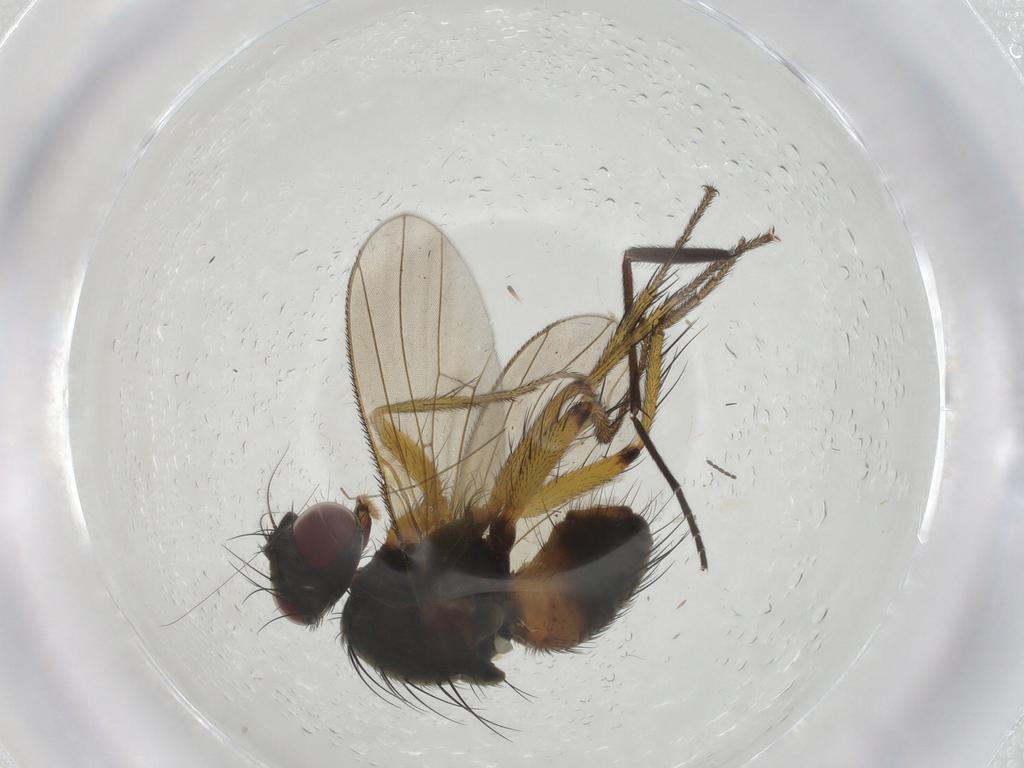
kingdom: Animalia
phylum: Arthropoda
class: Insecta
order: Diptera
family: Muscidae
